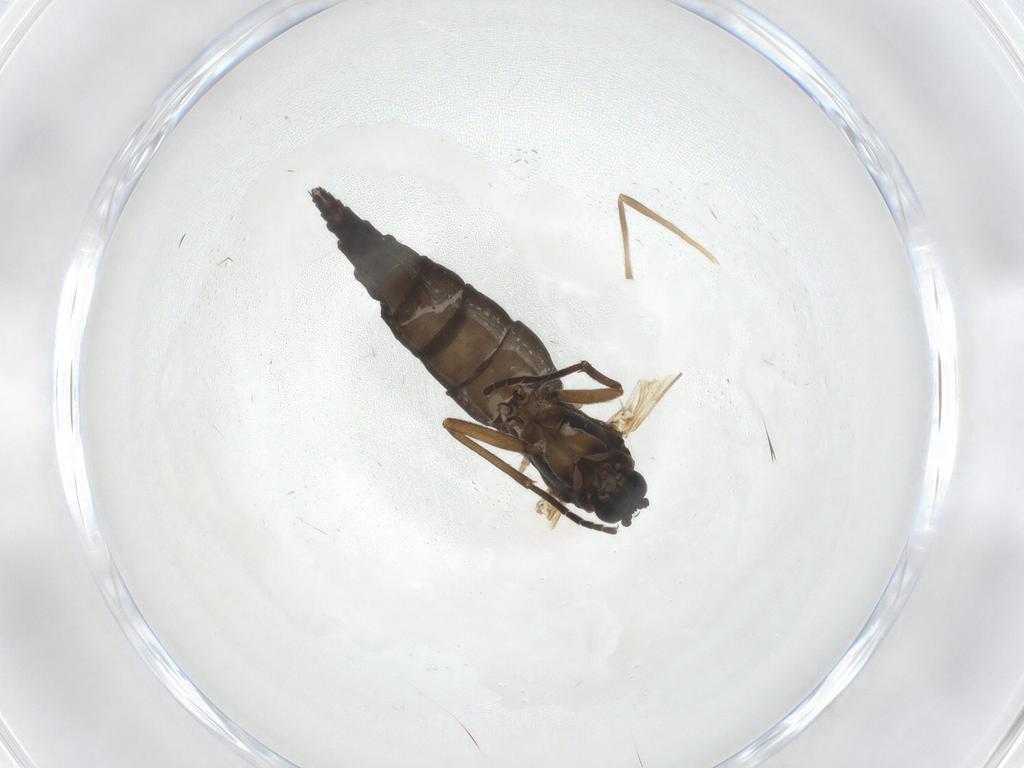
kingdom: Animalia
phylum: Arthropoda
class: Insecta
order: Diptera
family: Sciaridae
